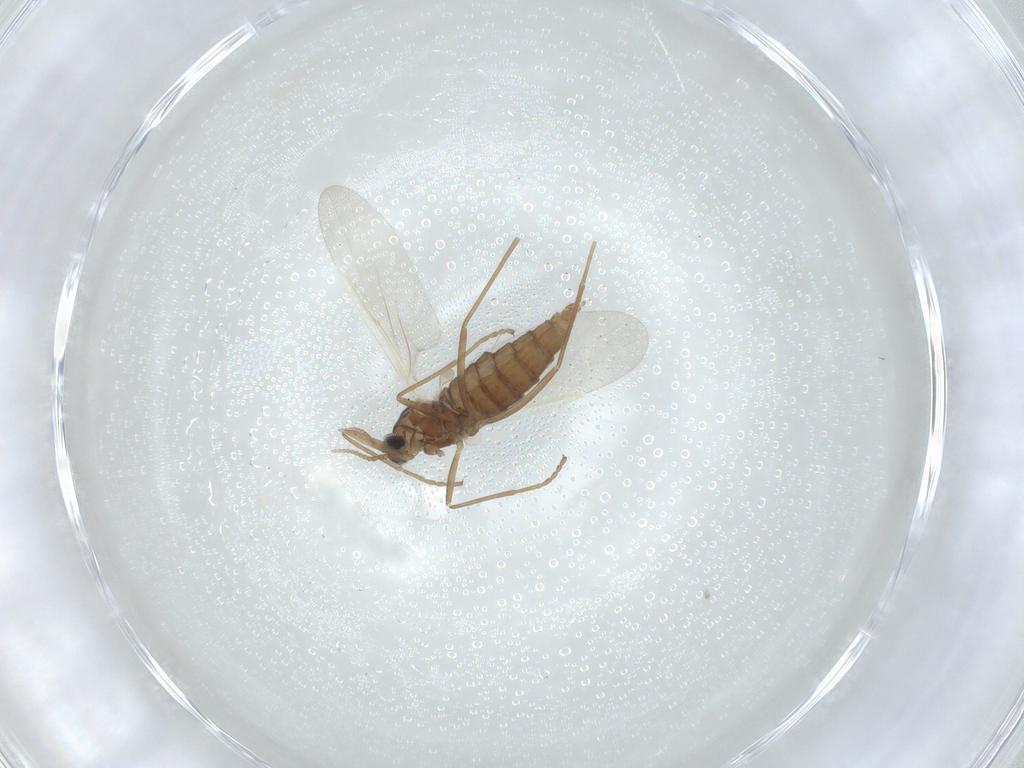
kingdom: Animalia
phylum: Arthropoda
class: Insecta
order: Diptera
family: Cecidomyiidae
